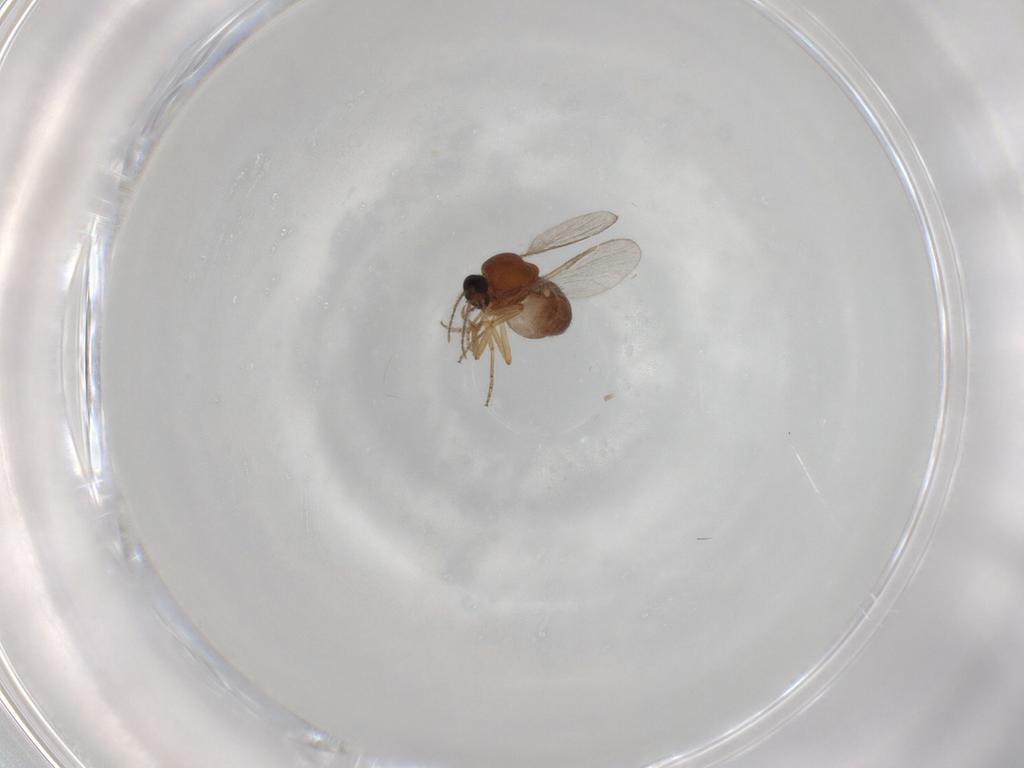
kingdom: Animalia
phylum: Arthropoda
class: Insecta
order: Diptera
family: Ceratopogonidae
